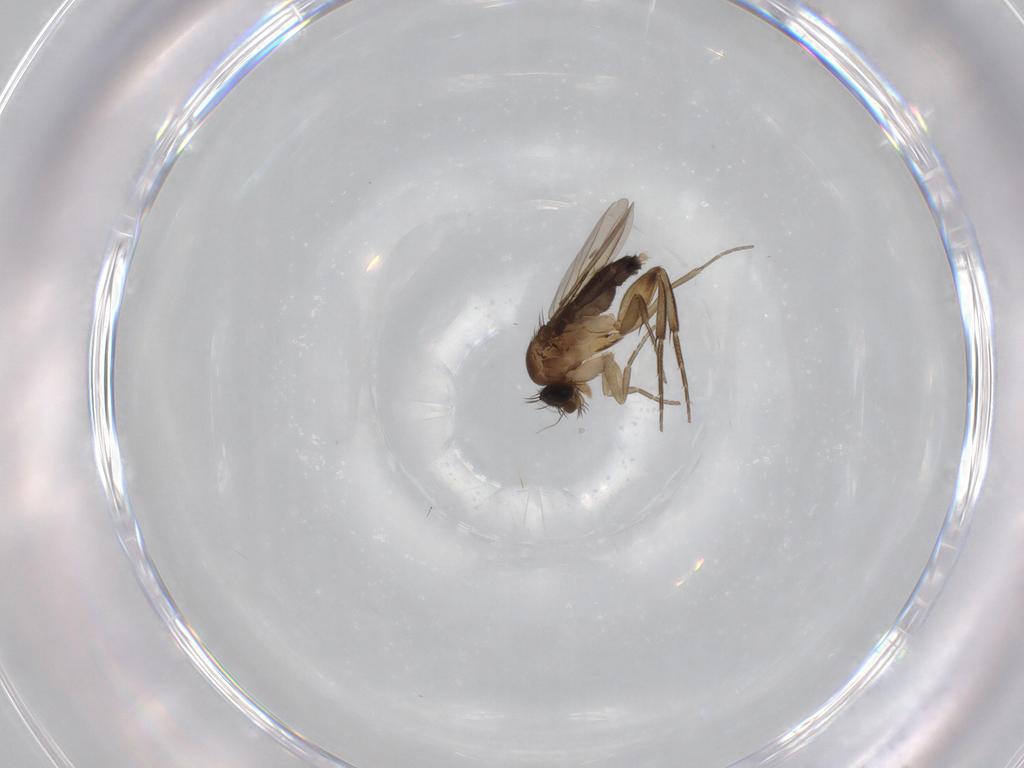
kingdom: Animalia
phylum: Arthropoda
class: Insecta
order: Diptera
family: Phoridae
